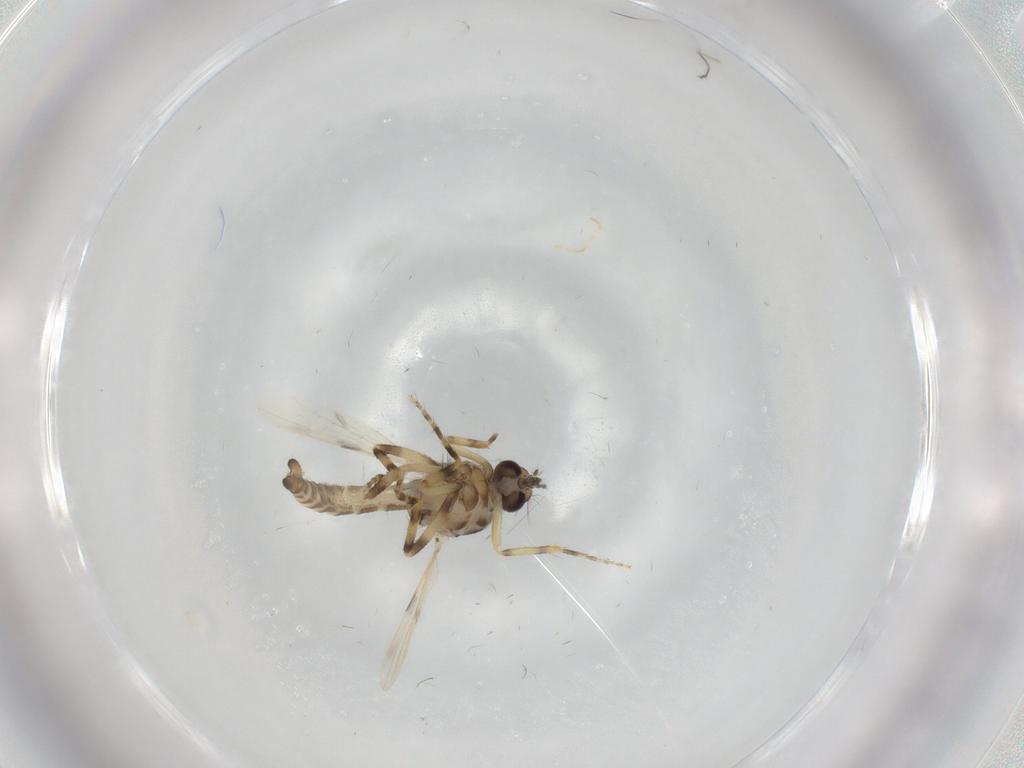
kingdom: Animalia
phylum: Arthropoda
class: Insecta
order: Diptera
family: Ceratopogonidae
